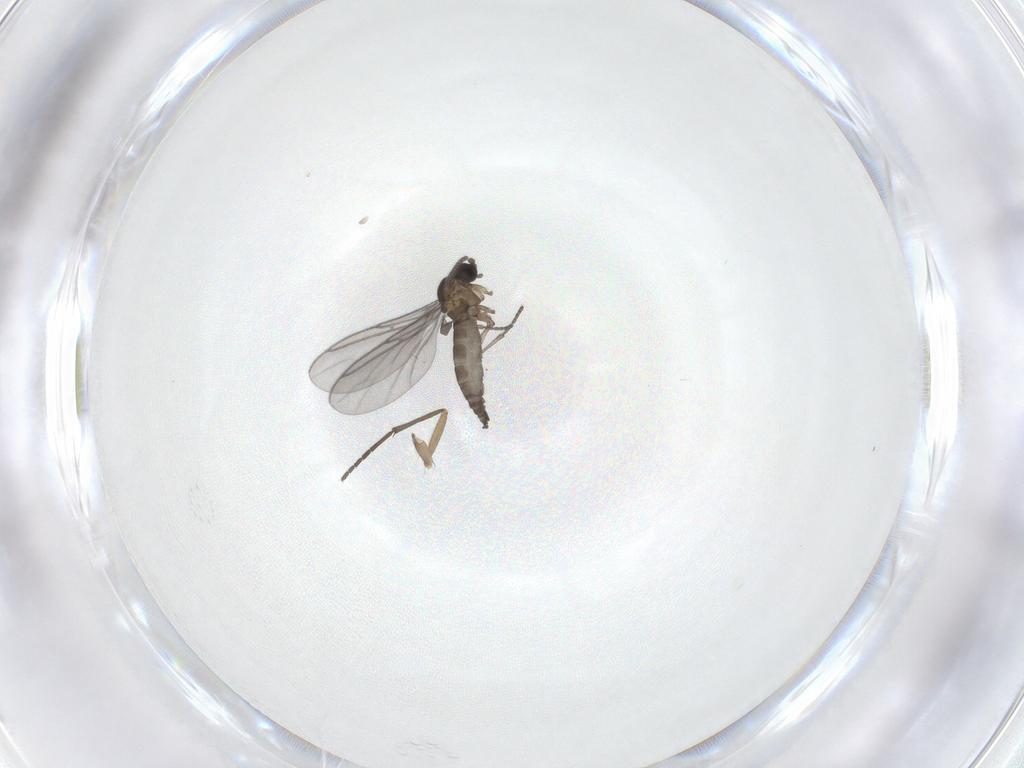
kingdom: Animalia
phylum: Arthropoda
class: Insecta
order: Diptera
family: Sciaridae
